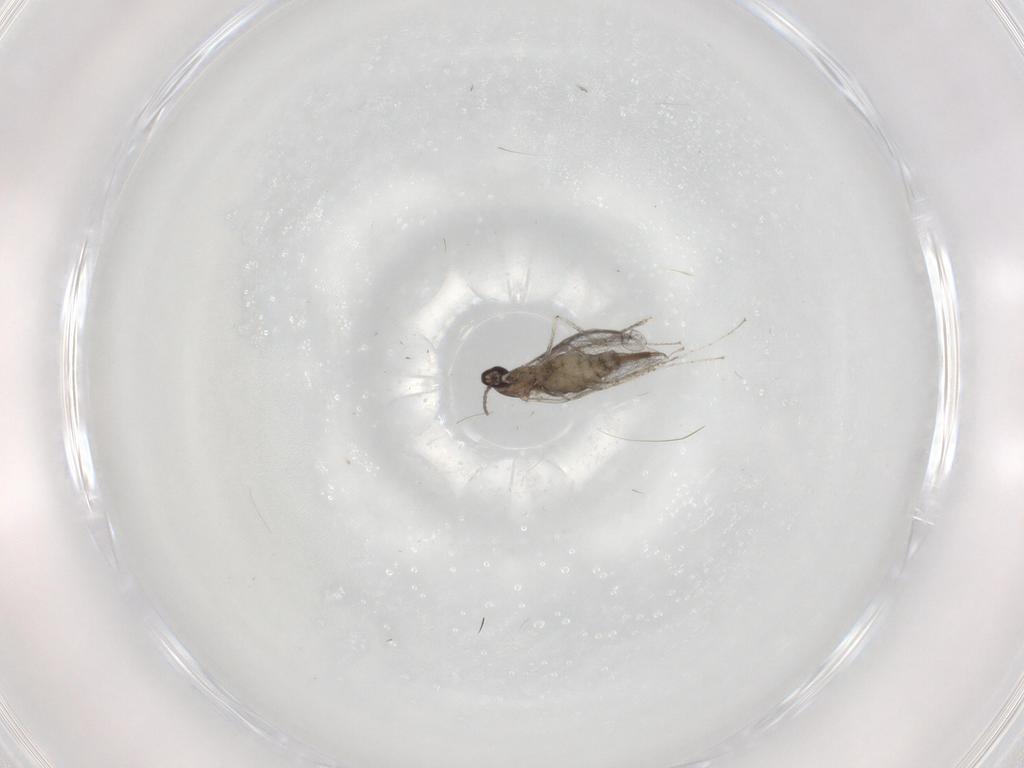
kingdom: Animalia
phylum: Arthropoda
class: Insecta
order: Diptera
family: Cecidomyiidae
